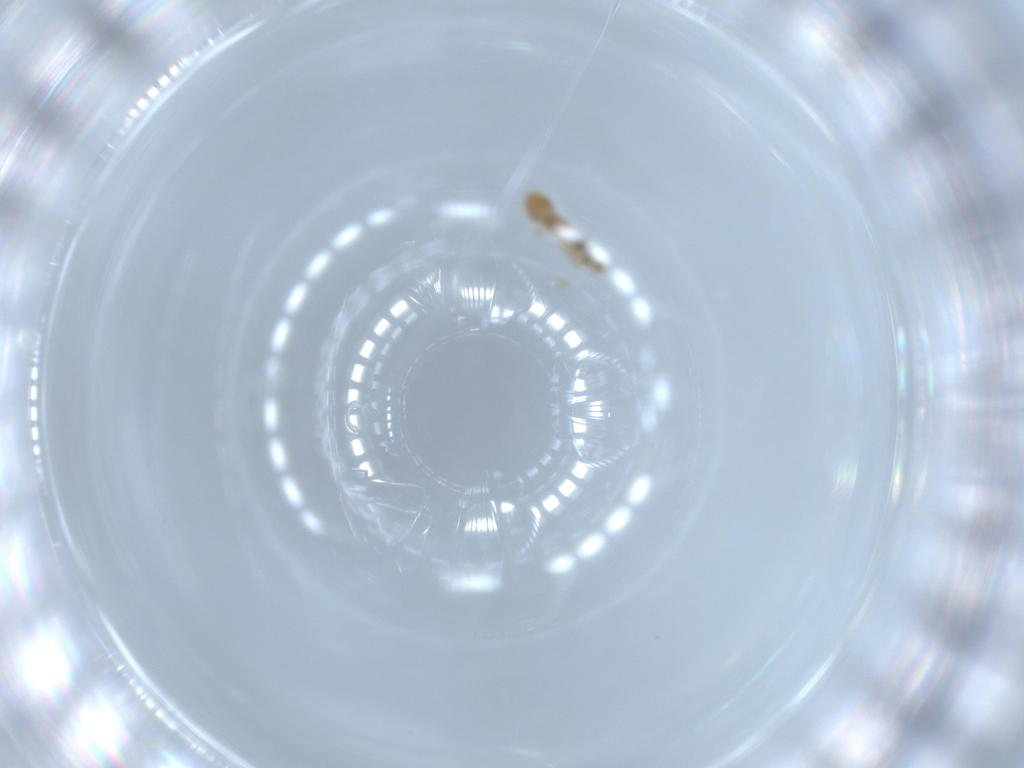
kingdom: Animalia
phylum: Arthropoda
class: Insecta
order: Diptera
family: Chironomidae
